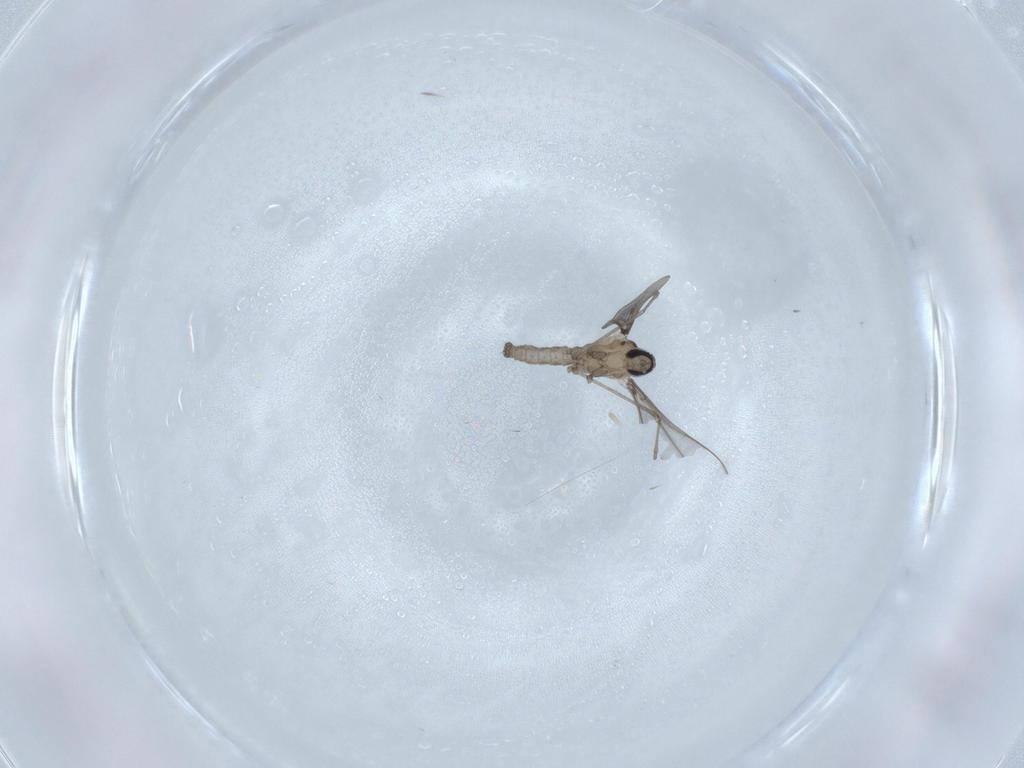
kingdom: Animalia
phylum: Arthropoda
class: Insecta
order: Diptera
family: Cecidomyiidae
